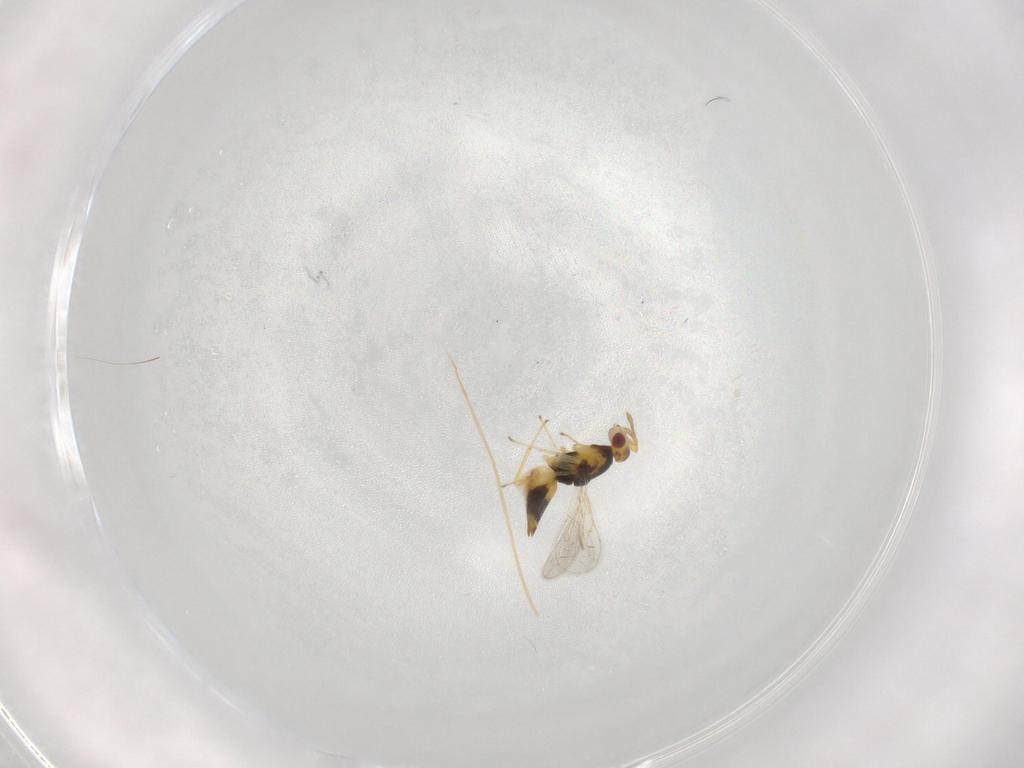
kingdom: Animalia
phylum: Arthropoda
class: Insecta
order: Hymenoptera
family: Eulophidae
